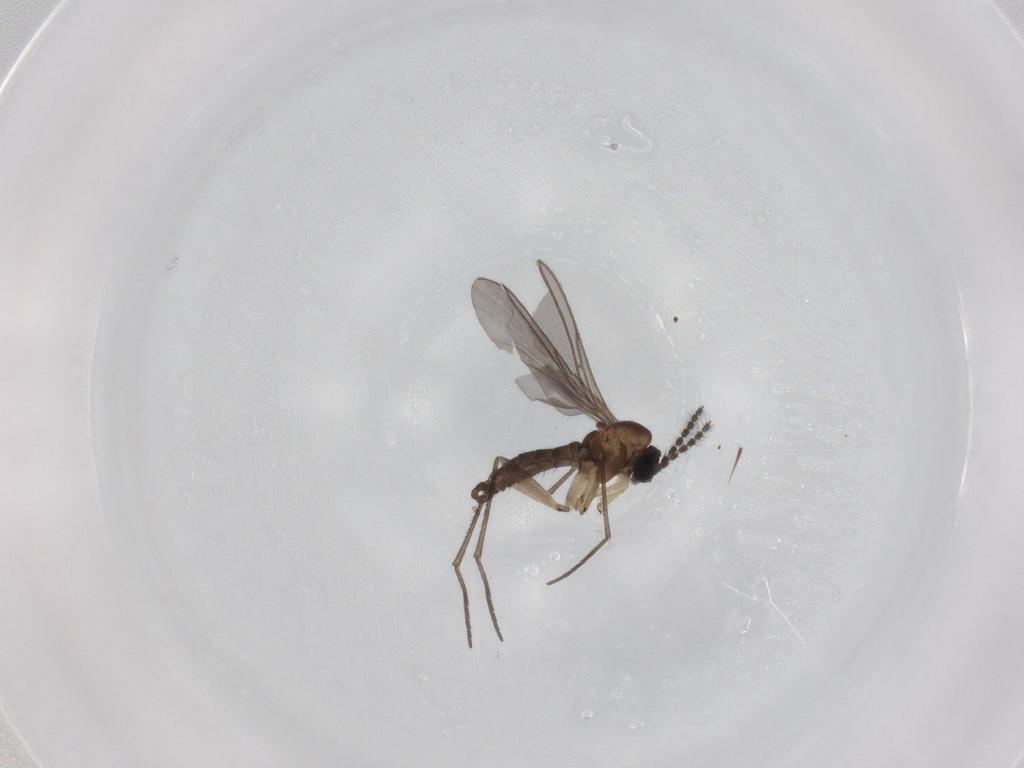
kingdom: Animalia
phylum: Arthropoda
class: Insecta
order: Diptera
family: Sciaridae
